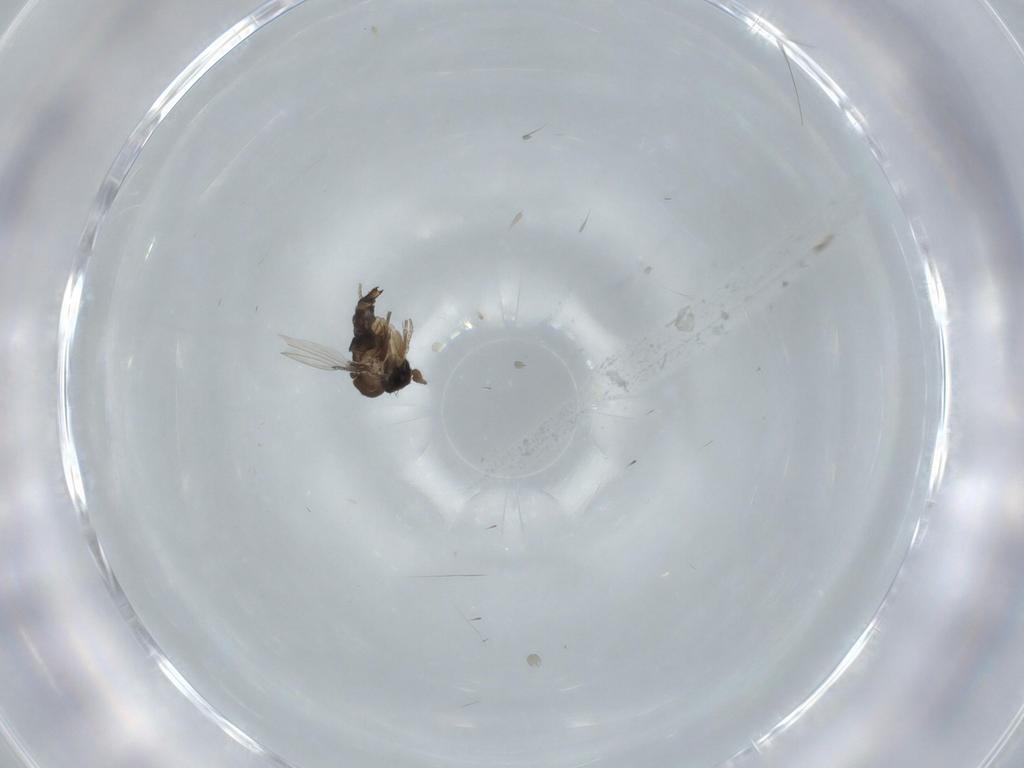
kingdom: Animalia
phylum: Arthropoda
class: Insecta
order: Diptera
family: Phoridae
